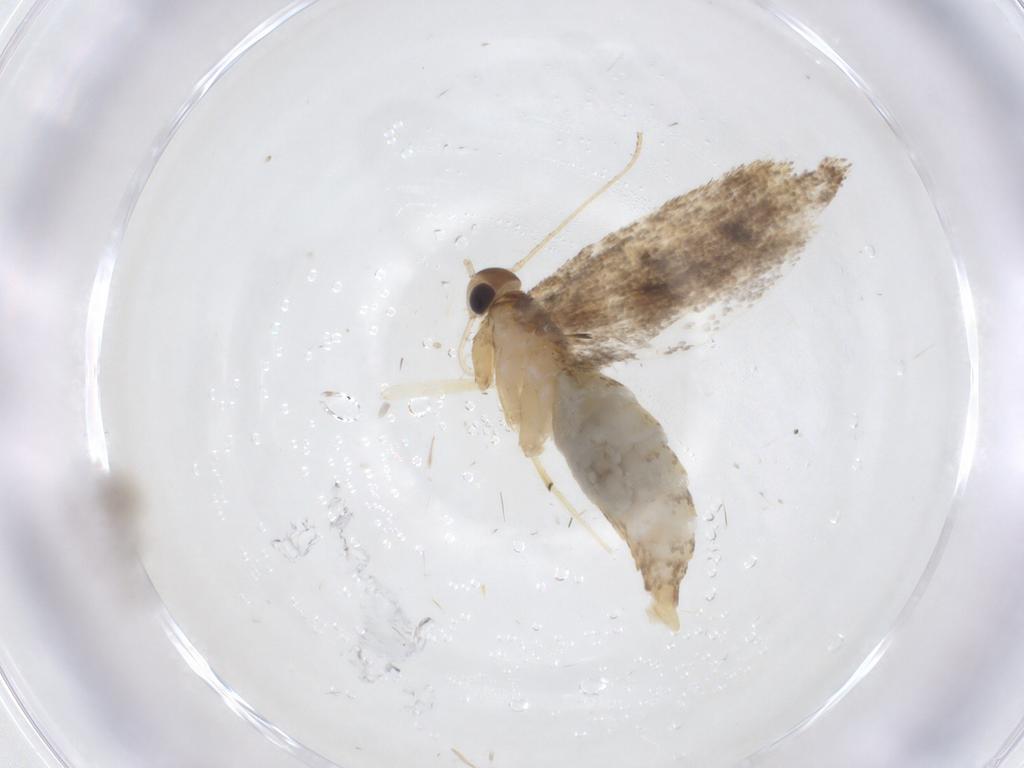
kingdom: Animalia
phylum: Arthropoda
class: Insecta
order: Lepidoptera
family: Oecophoridae
